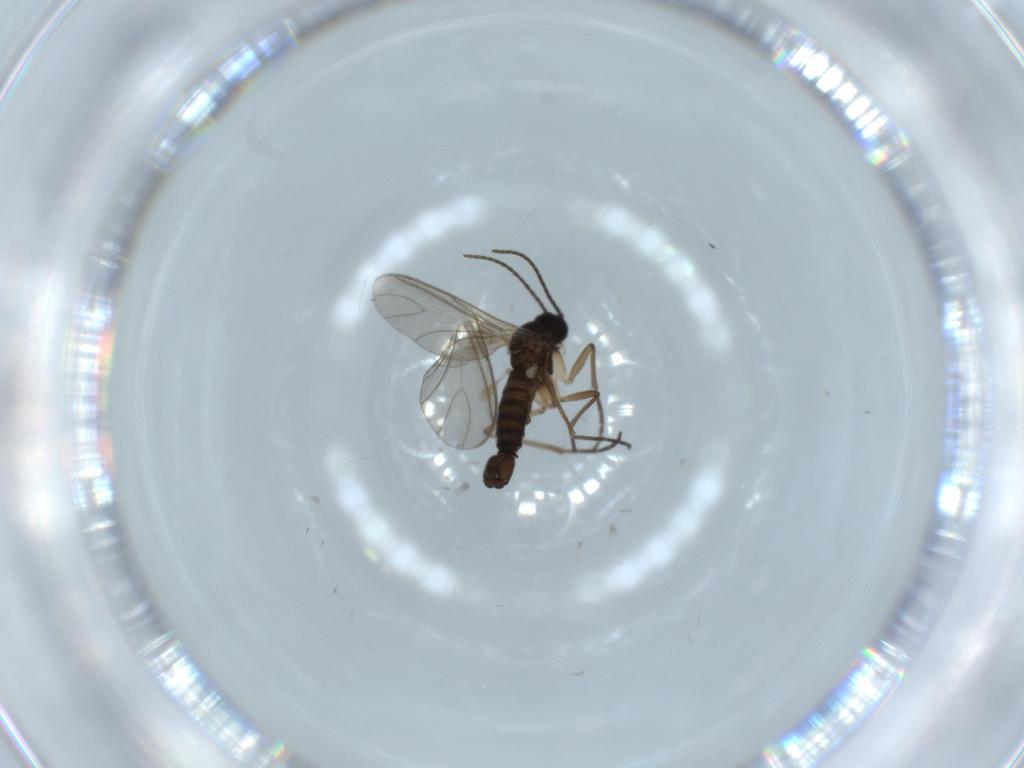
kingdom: Animalia
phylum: Arthropoda
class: Insecta
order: Diptera
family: Sciaridae
